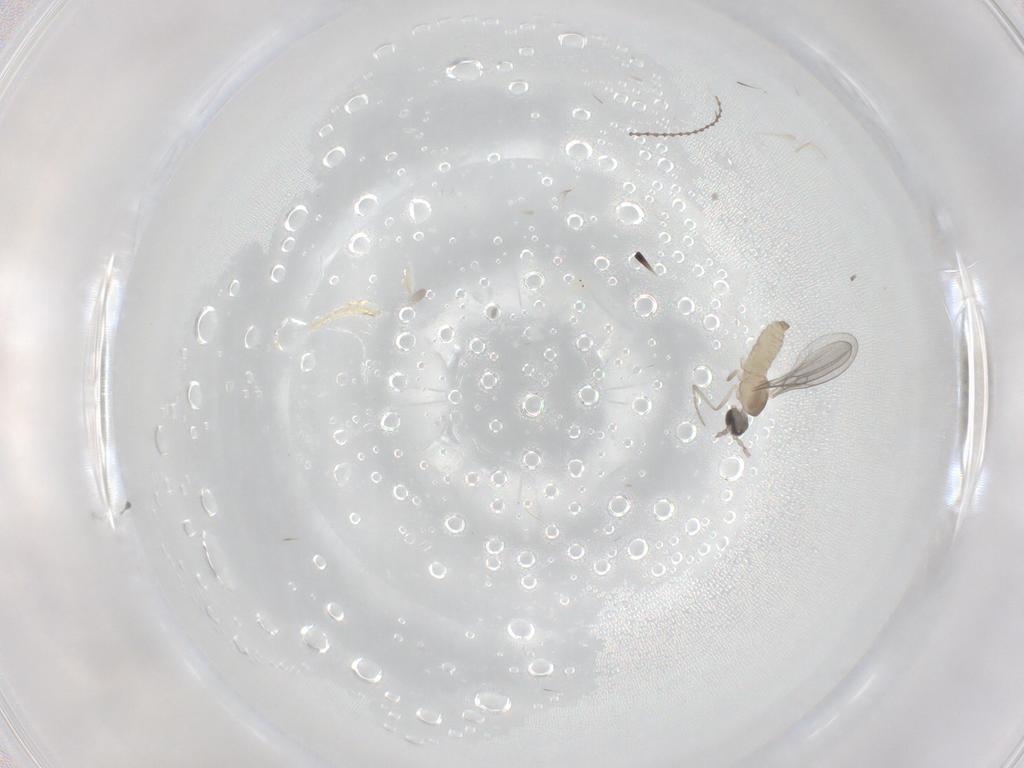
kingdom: Animalia
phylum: Arthropoda
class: Insecta
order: Diptera
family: Cecidomyiidae
